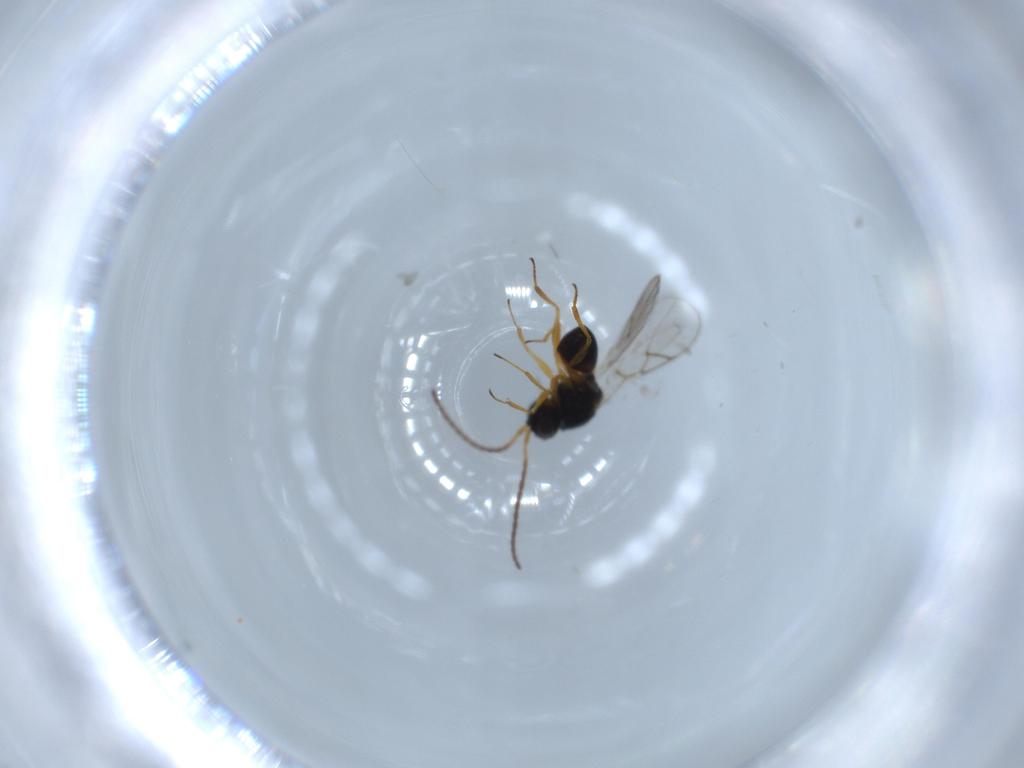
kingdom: Animalia
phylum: Arthropoda
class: Insecta
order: Hymenoptera
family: Figitidae
